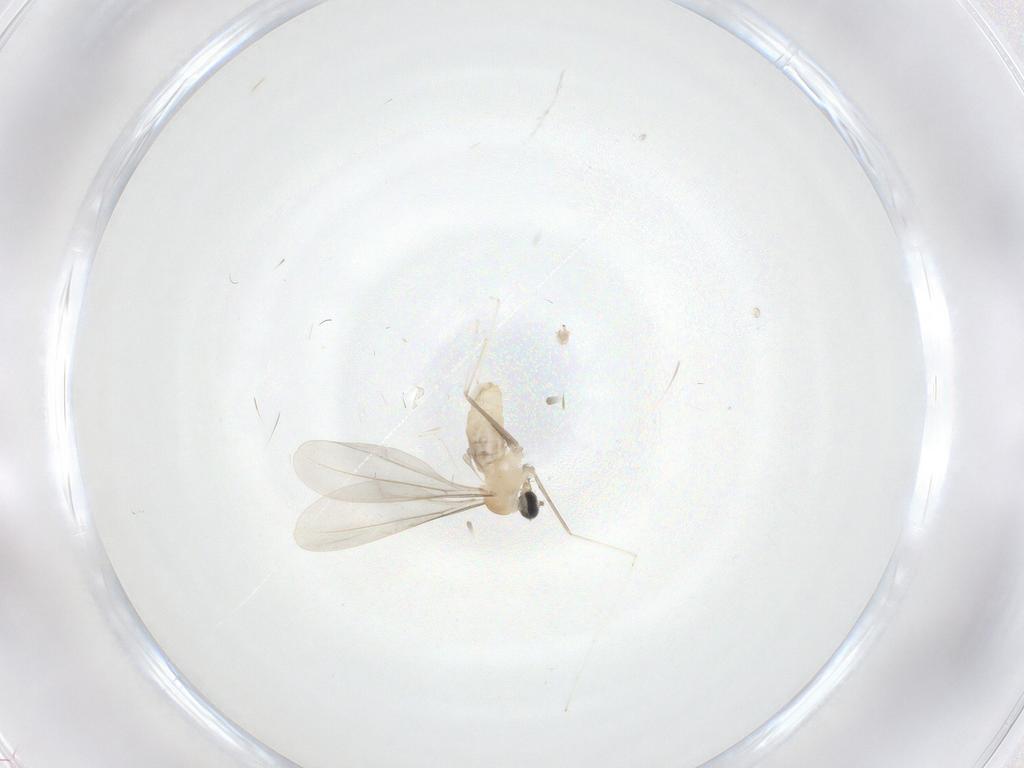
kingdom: Animalia
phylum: Arthropoda
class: Insecta
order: Diptera
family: Cecidomyiidae
